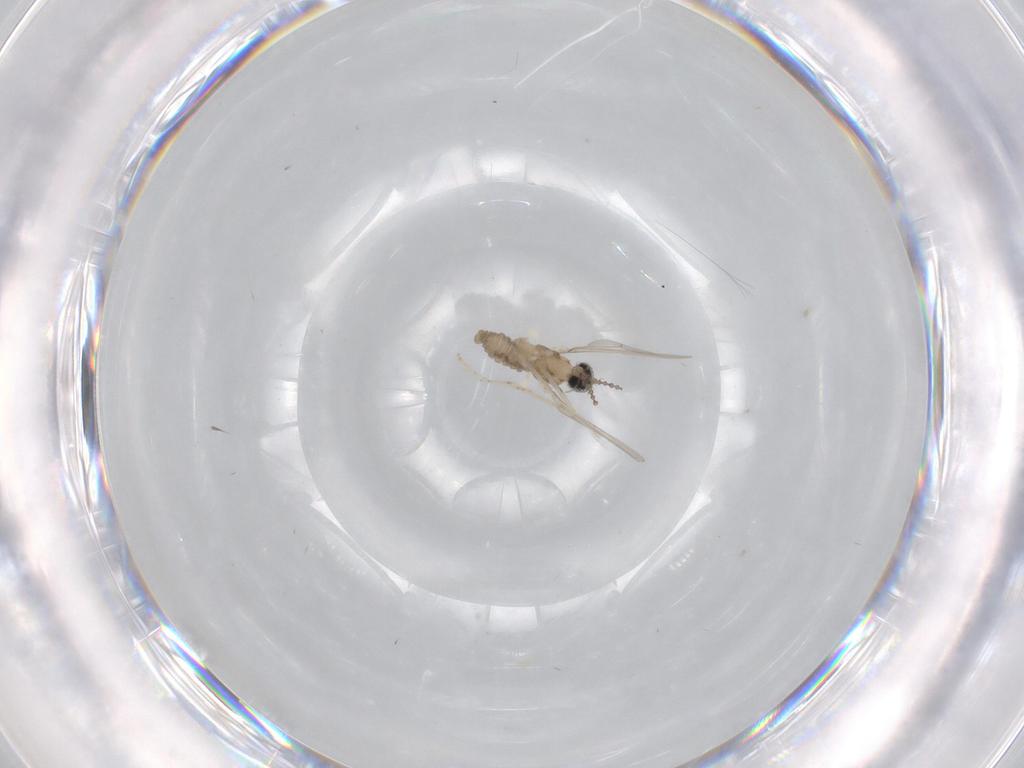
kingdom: Animalia
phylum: Arthropoda
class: Insecta
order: Diptera
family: Cecidomyiidae
